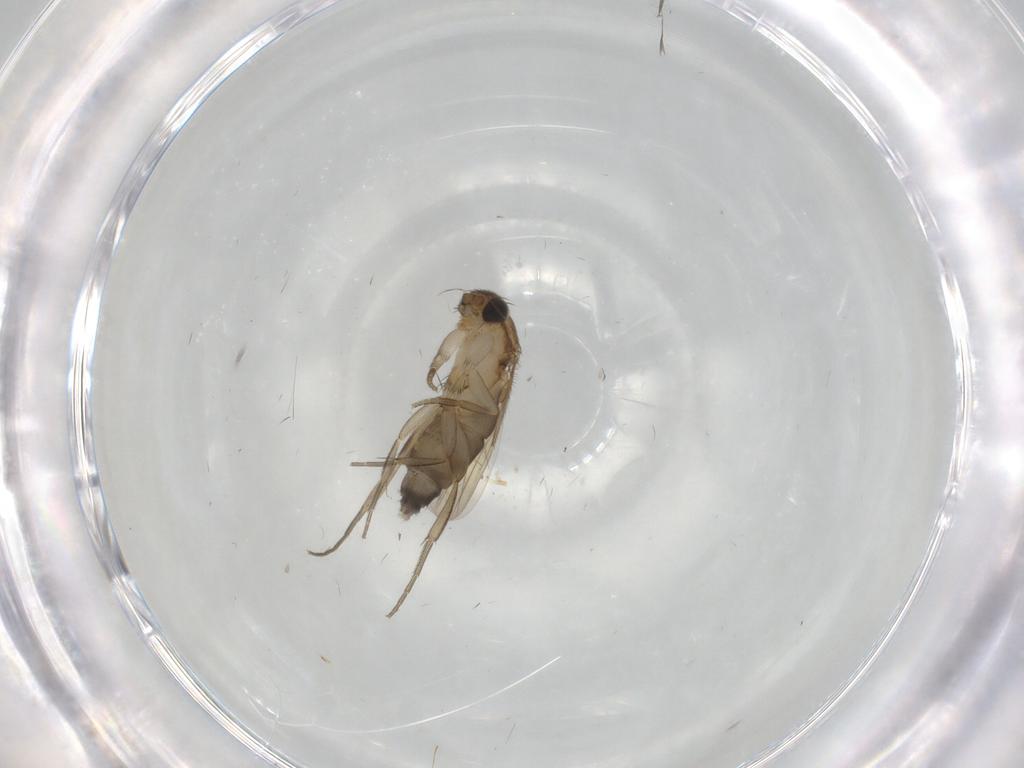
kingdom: Animalia
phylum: Arthropoda
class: Insecta
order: Diptera
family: Phoridae
